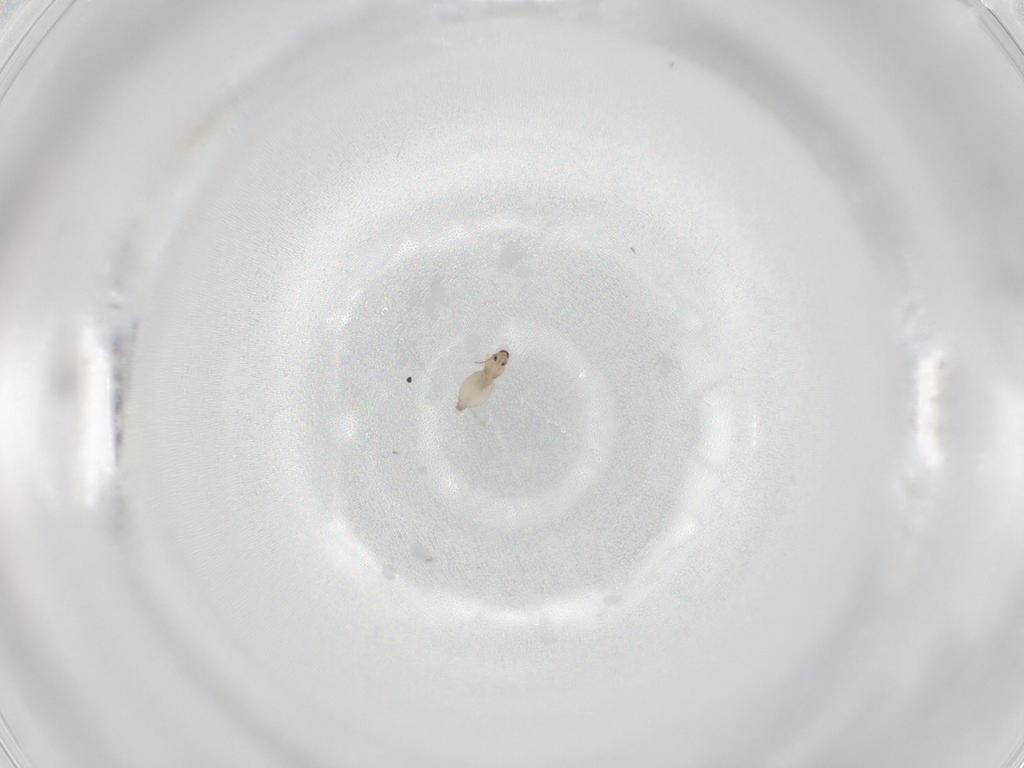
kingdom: Animalia
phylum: Arthropoda
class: Insecta
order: Diptera
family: Cecidomyiidae
